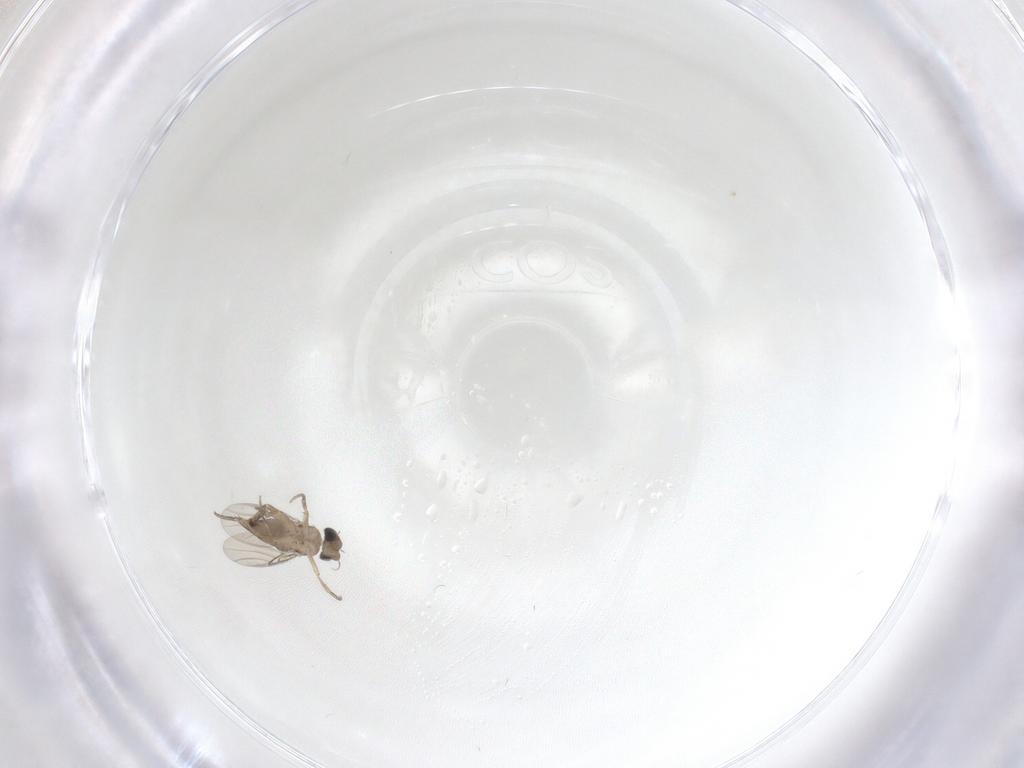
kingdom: Animalia
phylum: Arthropoda
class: Insecta
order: Diptera
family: Phoridae
